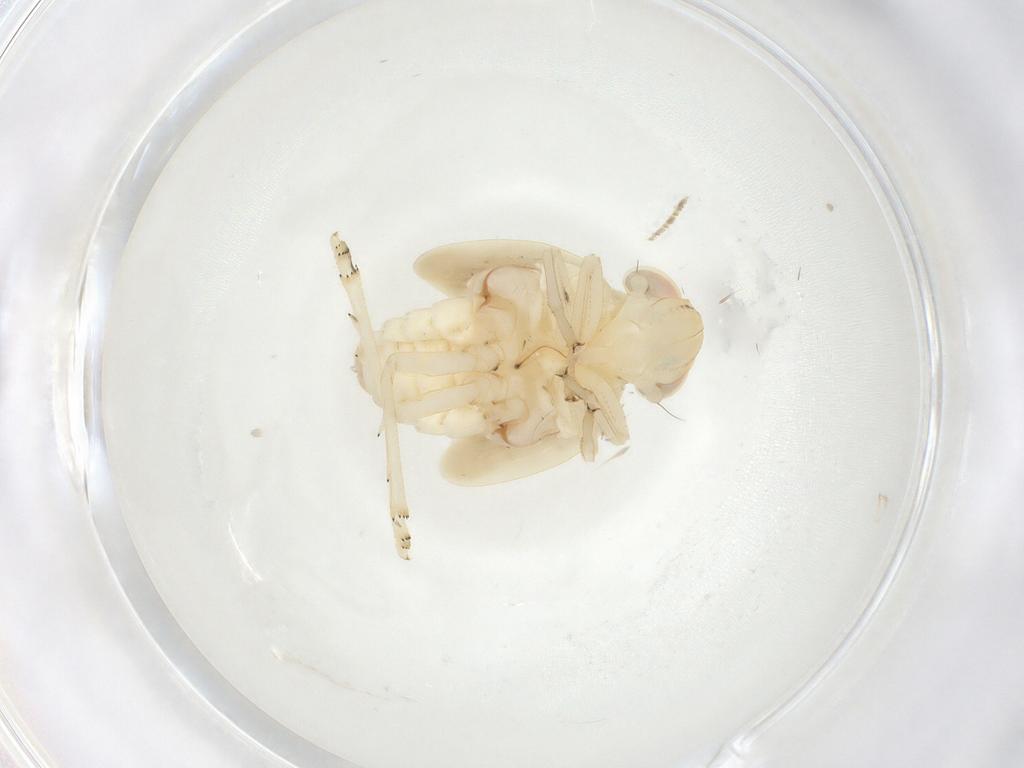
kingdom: Animalia
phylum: Arthropoda
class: Insecta
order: Hemiptera
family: Nogodinidae
